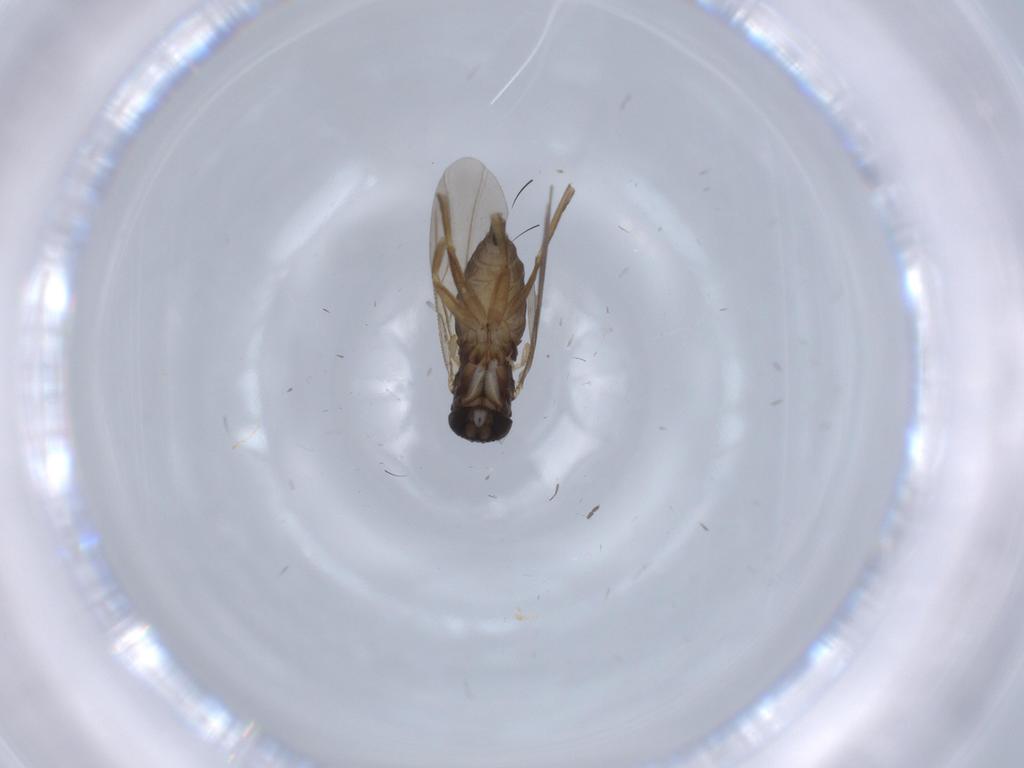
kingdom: Animalia
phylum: Arthropoda
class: Insecta
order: Diptera
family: Phoridae
